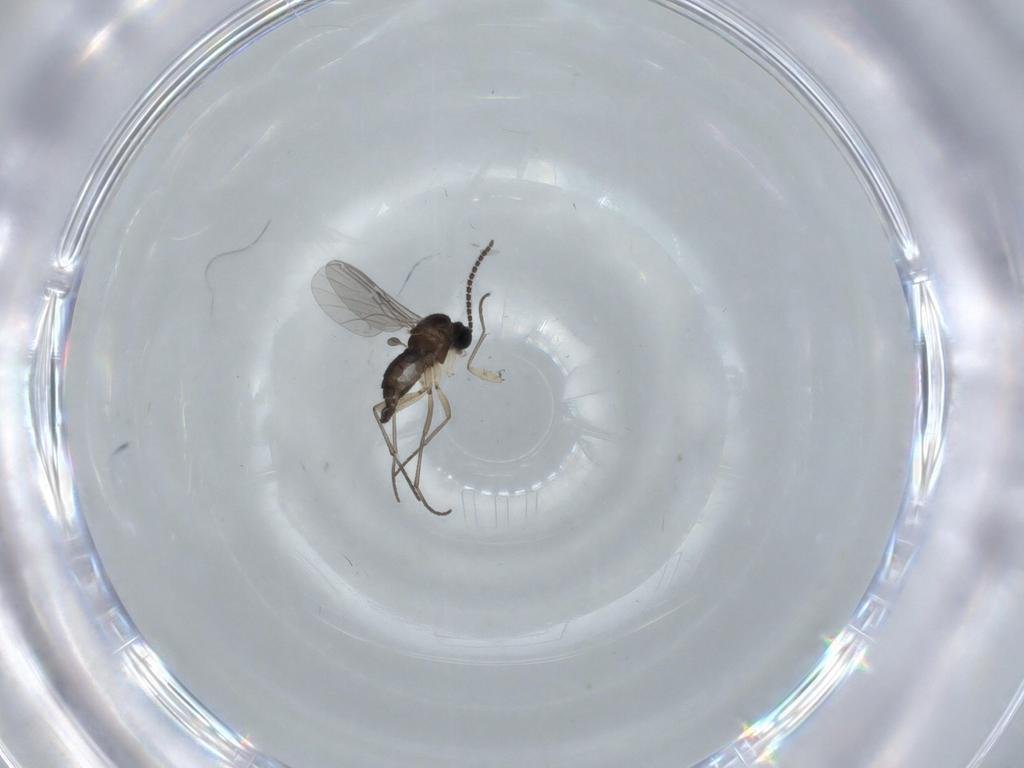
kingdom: Animalia
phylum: Arthropoda
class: Insecta
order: Diptera
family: Sciaridae
